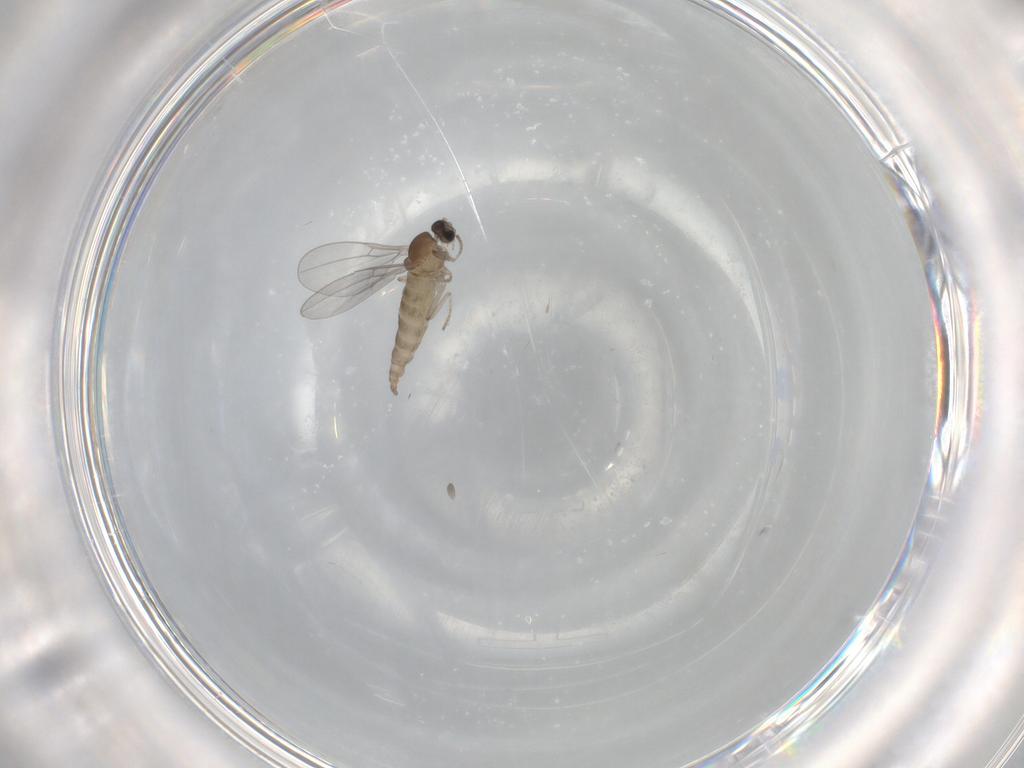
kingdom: Animalia
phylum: Arthropoda
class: Insecta
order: Diptera
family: Cecidomyiidae
